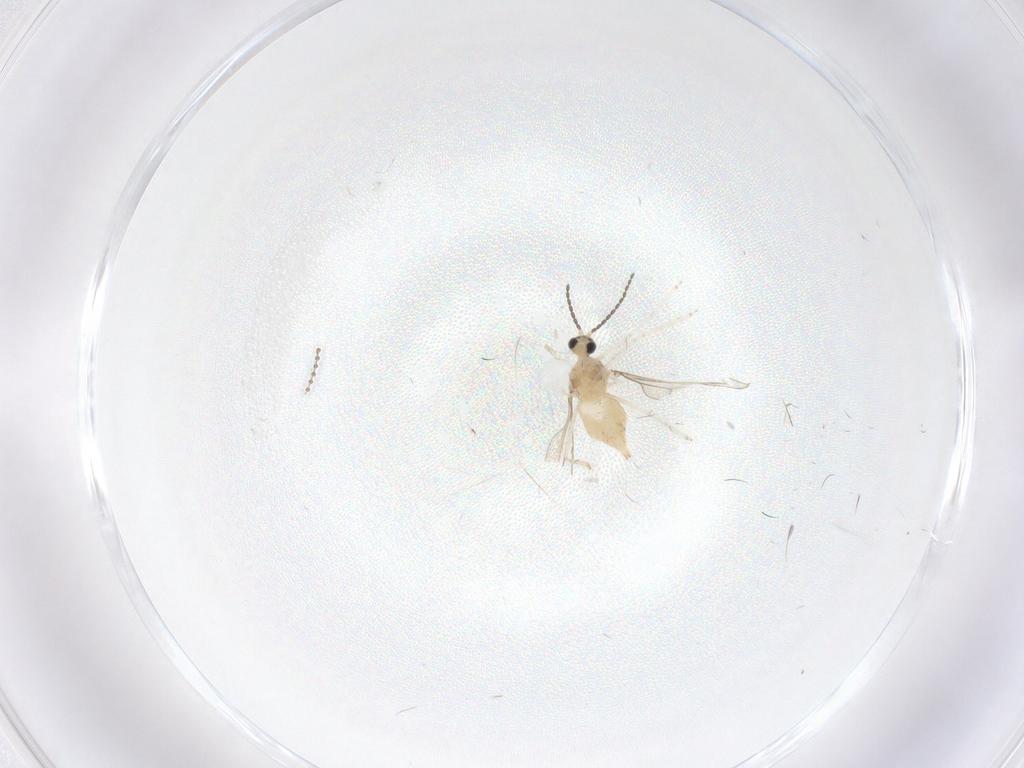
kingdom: Animalia
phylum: Arthropoda
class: Insecta
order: Diptera
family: Cecidomyiidae
